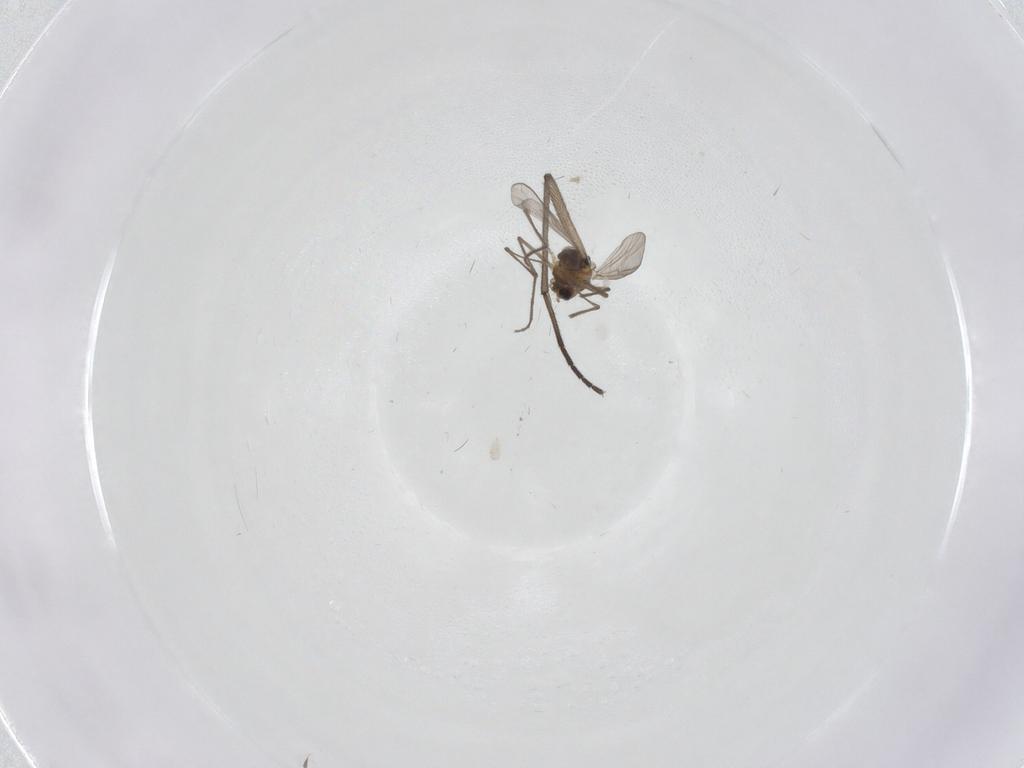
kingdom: Animalia
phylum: Arthropoda
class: Insecta
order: Diptera
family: Chironomidae
